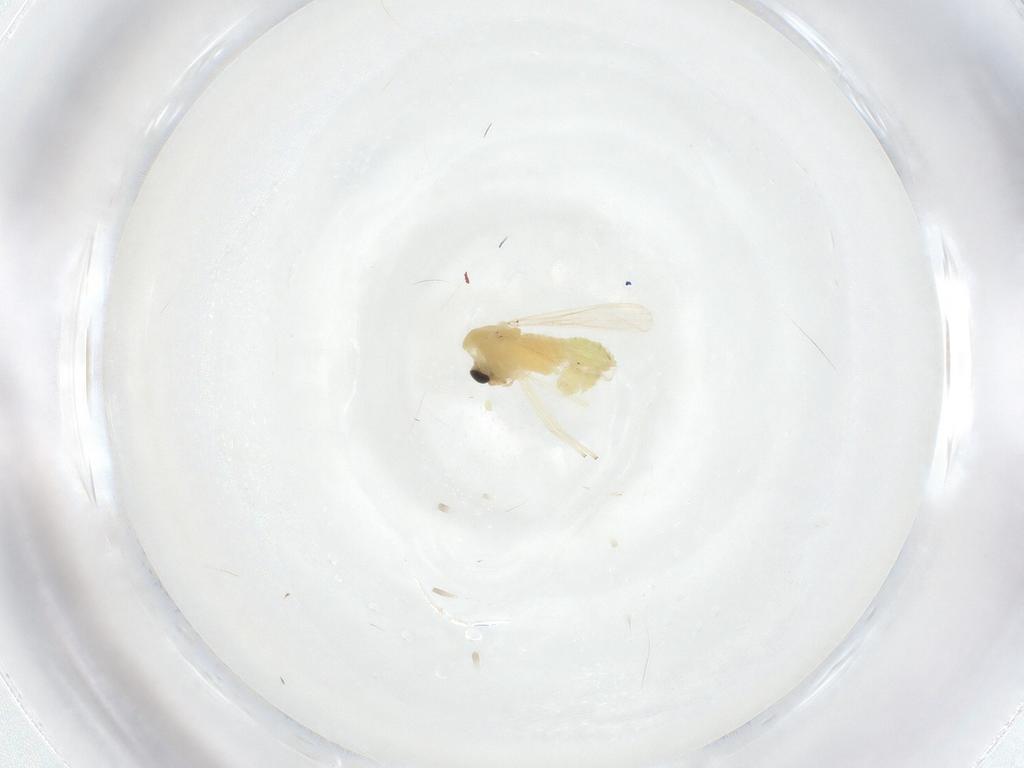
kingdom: Animalia
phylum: Arthropoda
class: Insecta
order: Diptera
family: Chironomidae
